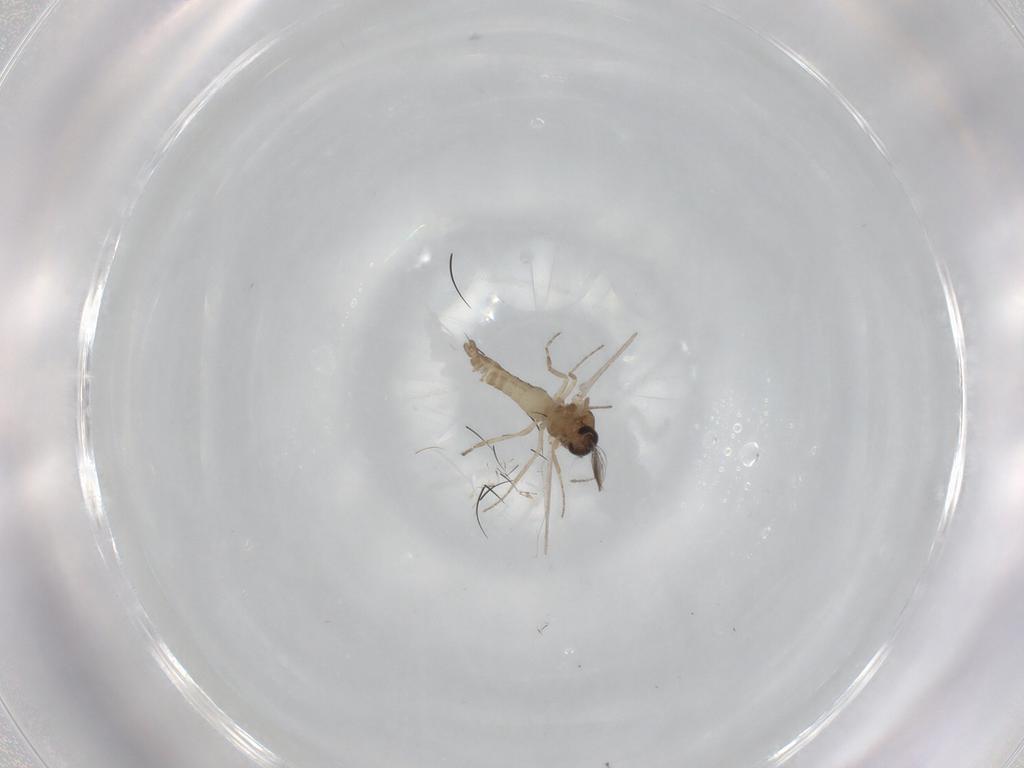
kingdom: Animalia
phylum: Arthropoda
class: Insecta
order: Diptera
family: Ceratopogonidae
